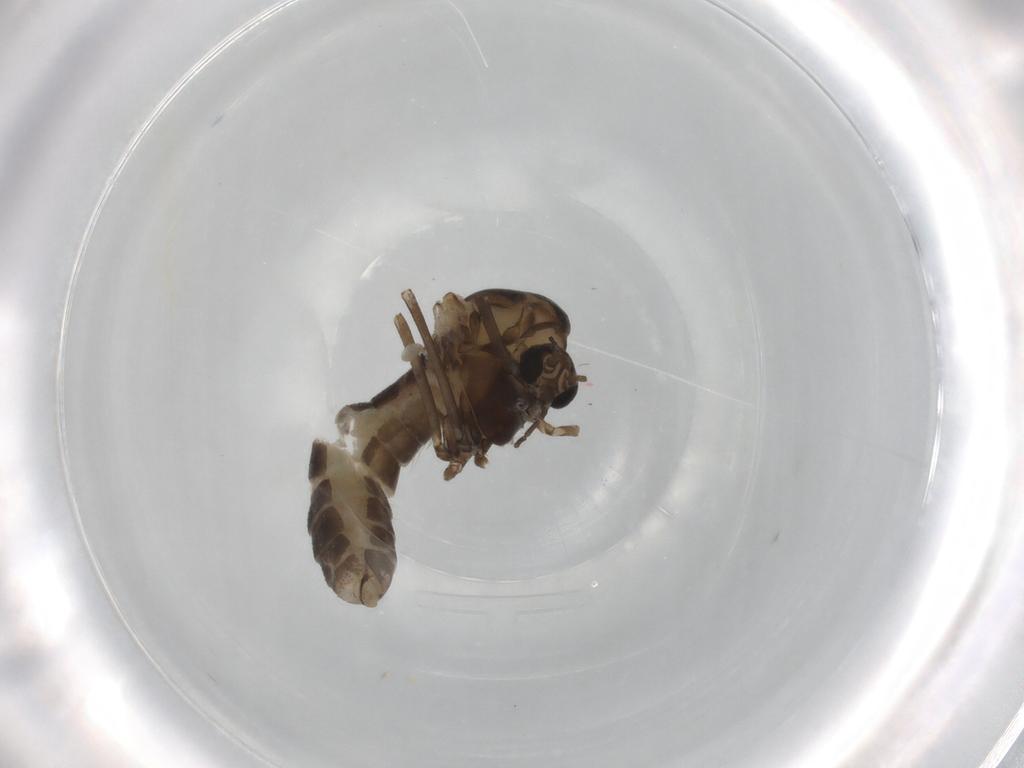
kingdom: Animalia
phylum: Arthropoda
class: Insecta
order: Diptera
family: Chironomidae
